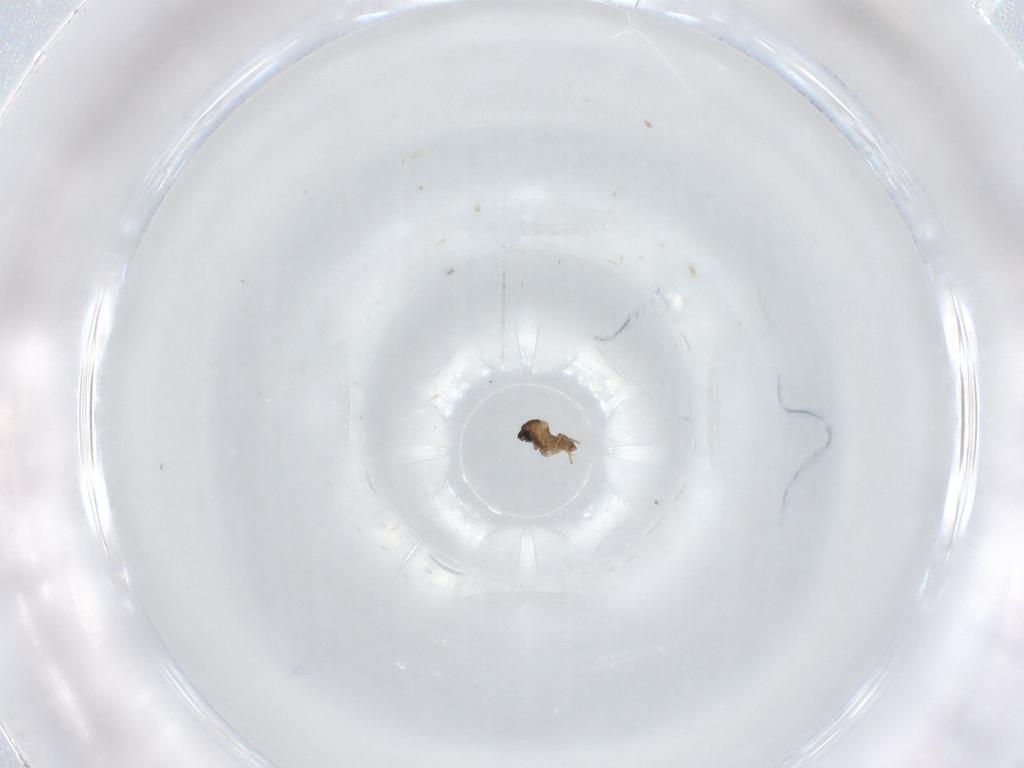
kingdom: Animalia
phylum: Arthropoda
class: Insecta
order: Diptera
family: Cecidomyiidae
